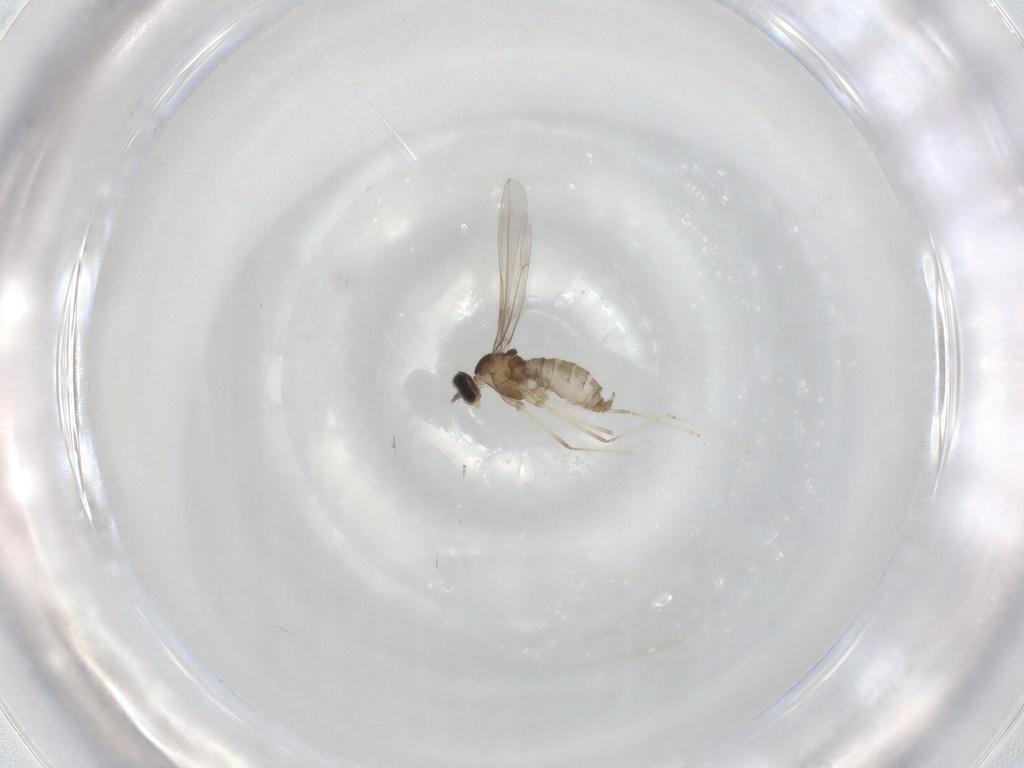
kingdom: Animalia
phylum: Arthropoda
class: Insecta
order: Diptera
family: Cecidomyiidae
